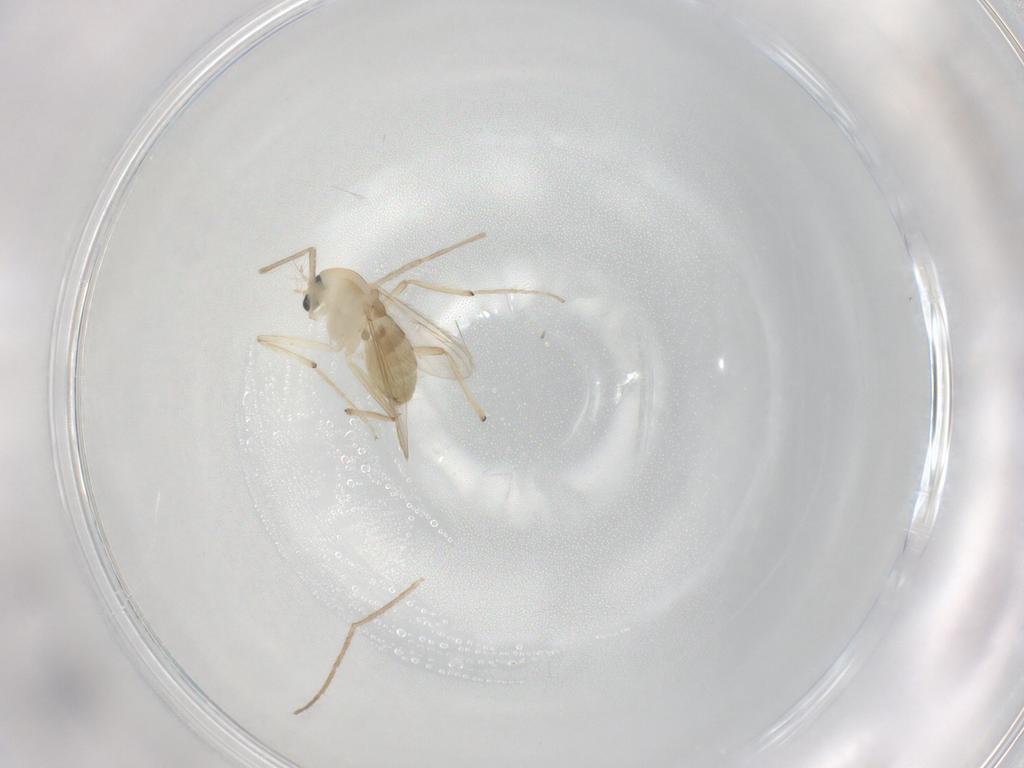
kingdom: Animalia
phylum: Arthropoda
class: Insecta
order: Diptera
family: Chironomidae
